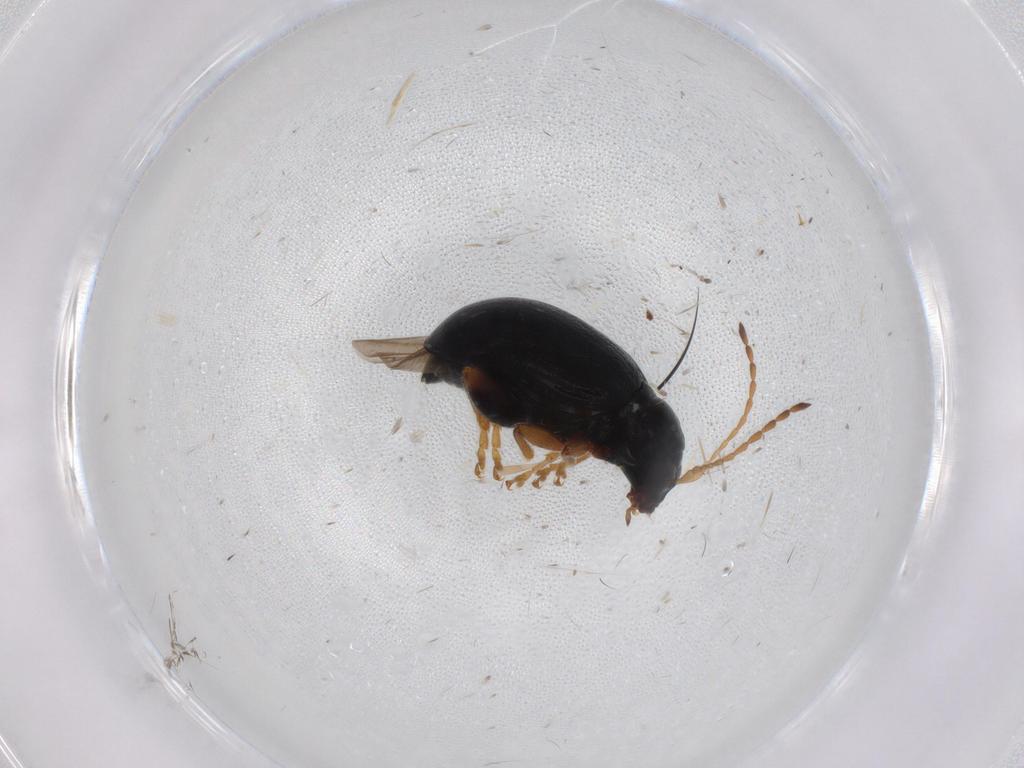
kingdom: Animalia
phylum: Arthropoda
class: Insecta
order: Coleoptera
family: Chrysomelidae
